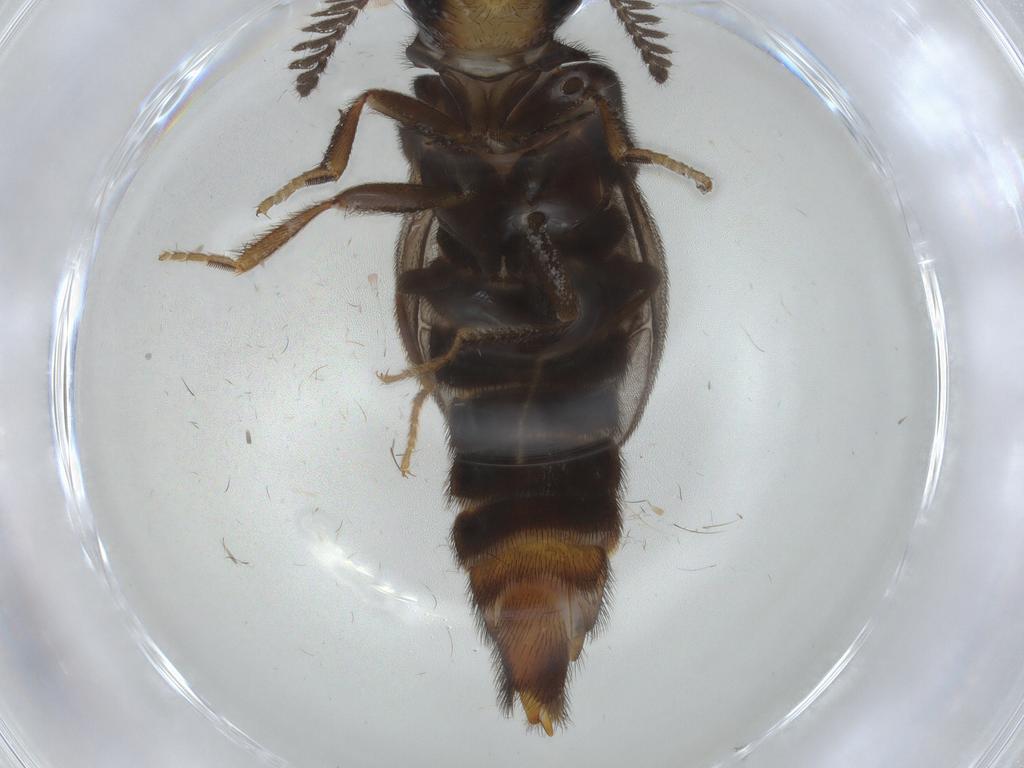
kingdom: Animalia
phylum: Arthropoda
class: Insecta
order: Coleoptera
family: Phengodidae
